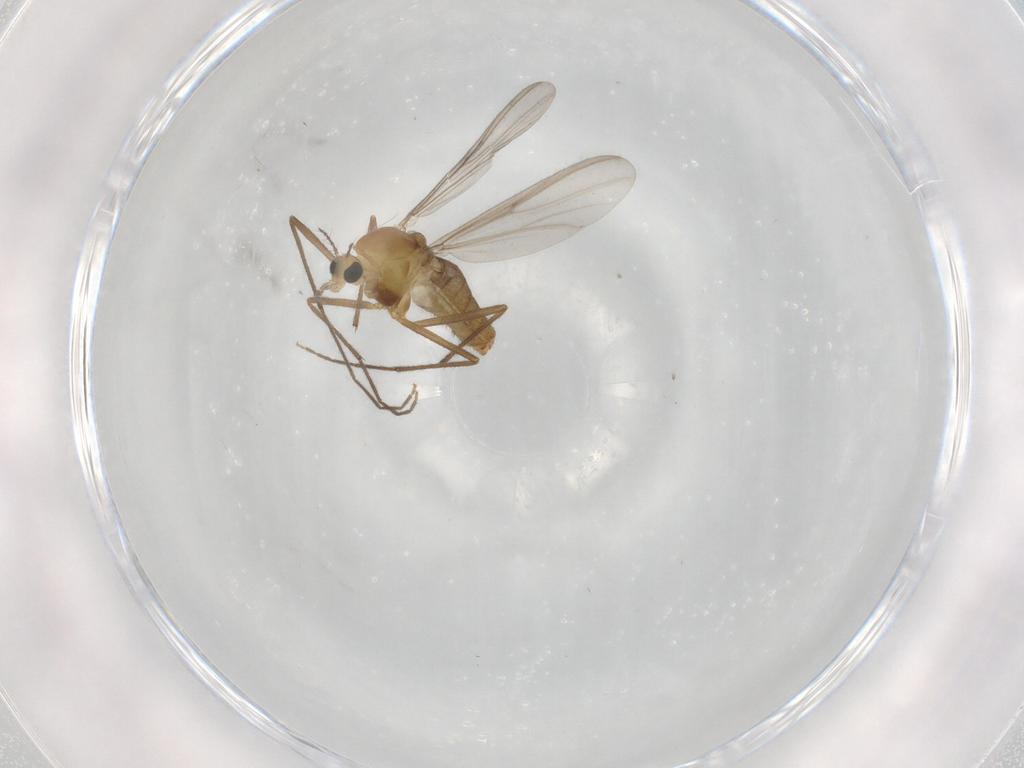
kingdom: Animalia
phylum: Arthropoda
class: Insecta
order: Diptera
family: Chironomidae
